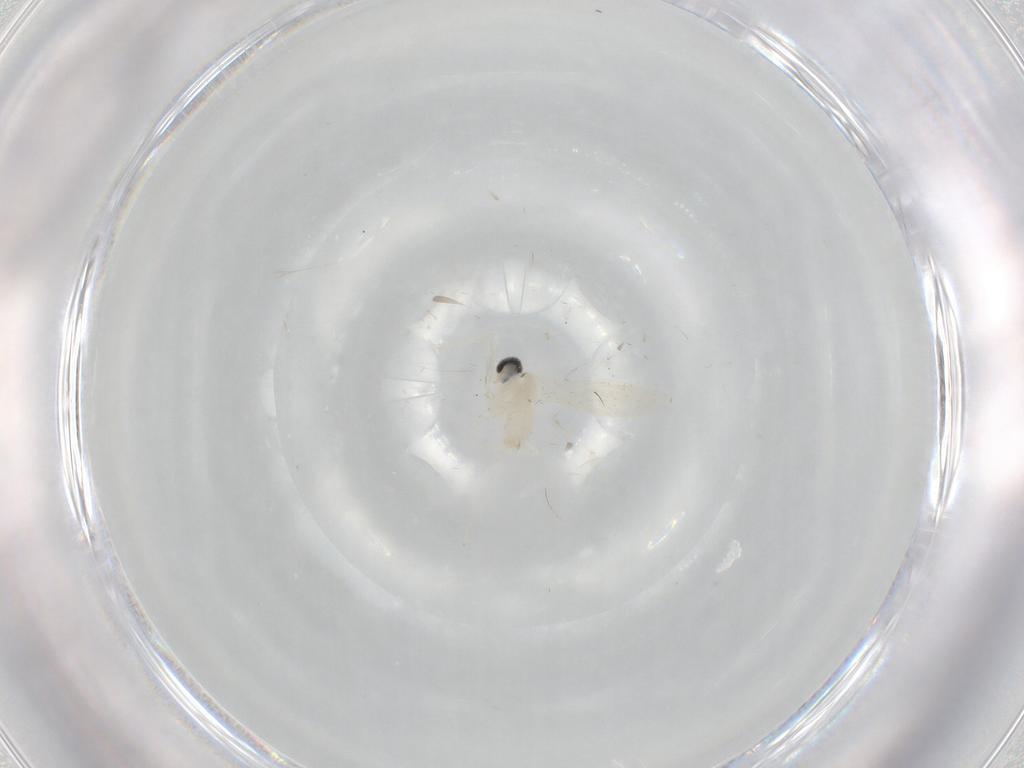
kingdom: Animalia
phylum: Arthropoda
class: Insecta
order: Diptera
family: Cecidomyiidae
